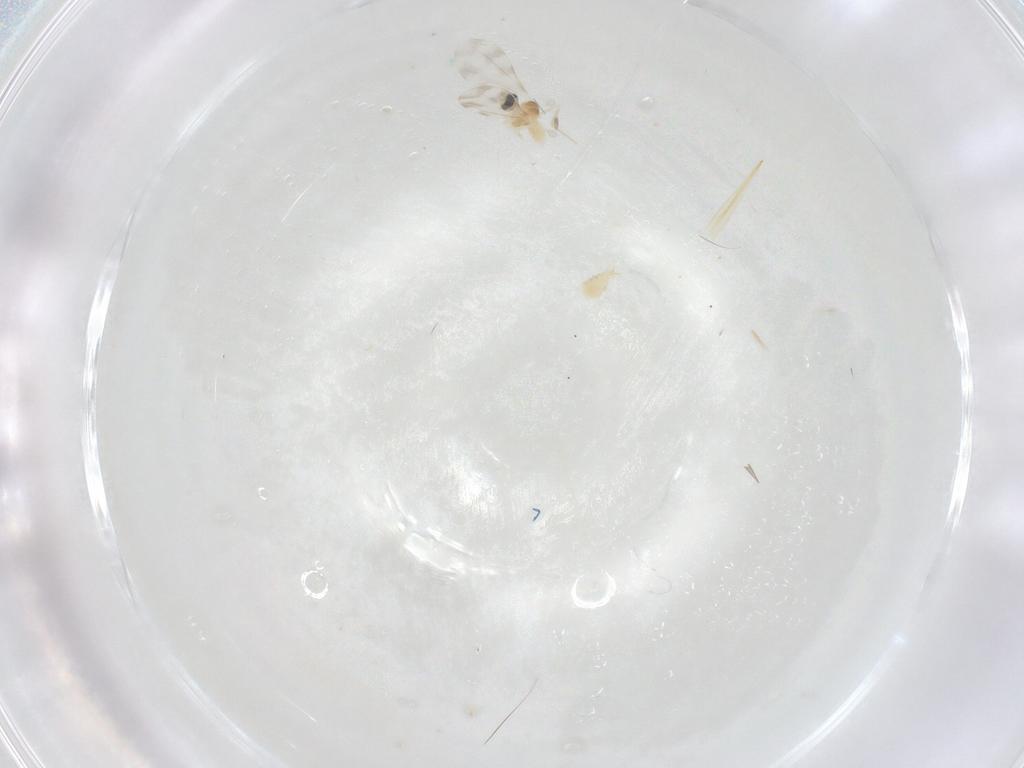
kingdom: Animalia
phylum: Arthropoda
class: Insecta
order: Diptera
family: Cecidomyiidae
